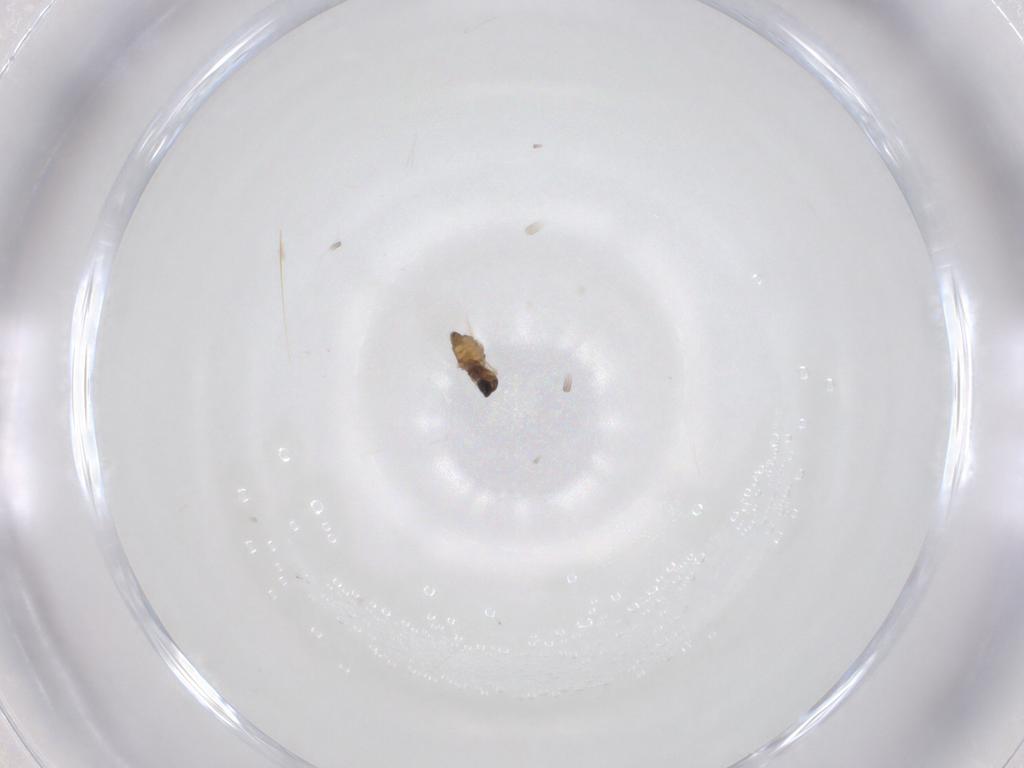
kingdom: Animalia
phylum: Arthropoda
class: Insecta
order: Diptera
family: Cecidomyiidae
